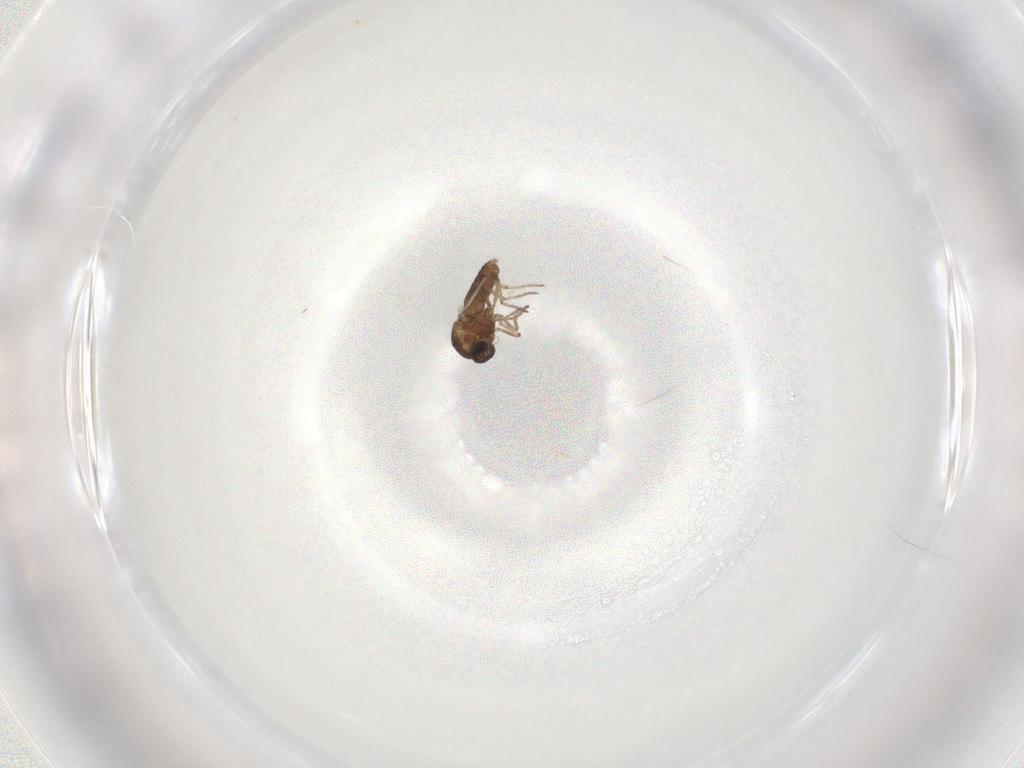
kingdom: Animalia
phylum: Arthropoda
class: Insecta
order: Diptera
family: Ceratopogonidae
